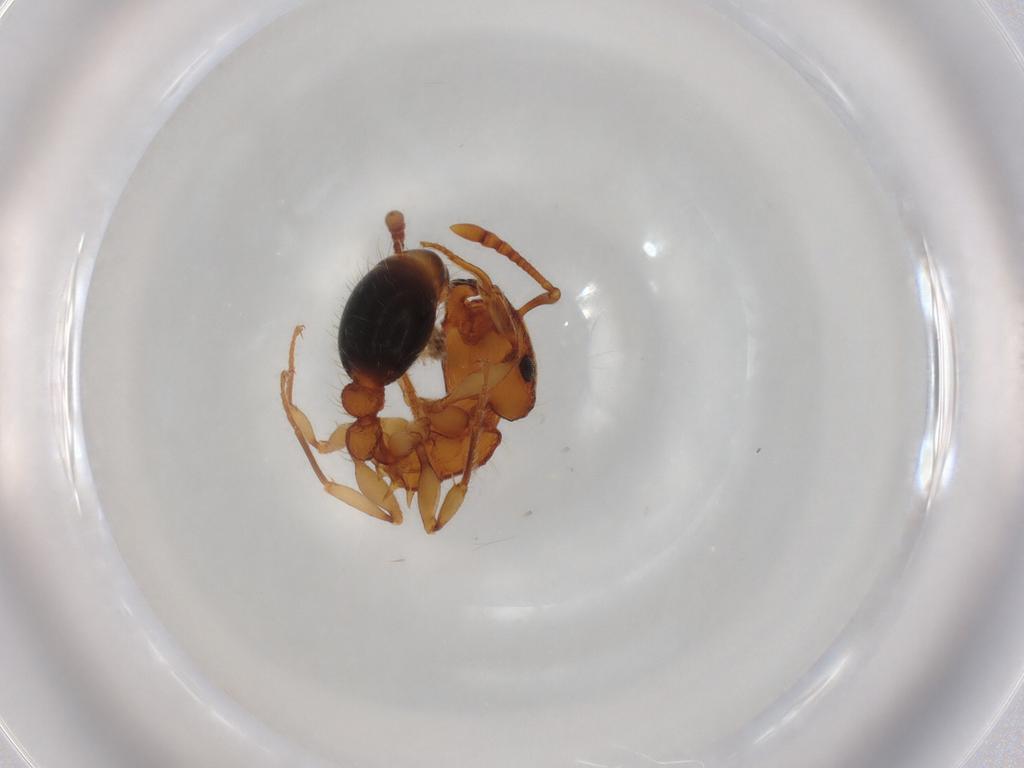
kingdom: Animalia
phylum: Arthropoda
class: Insecta
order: Hymenoptera
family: Formicidae
